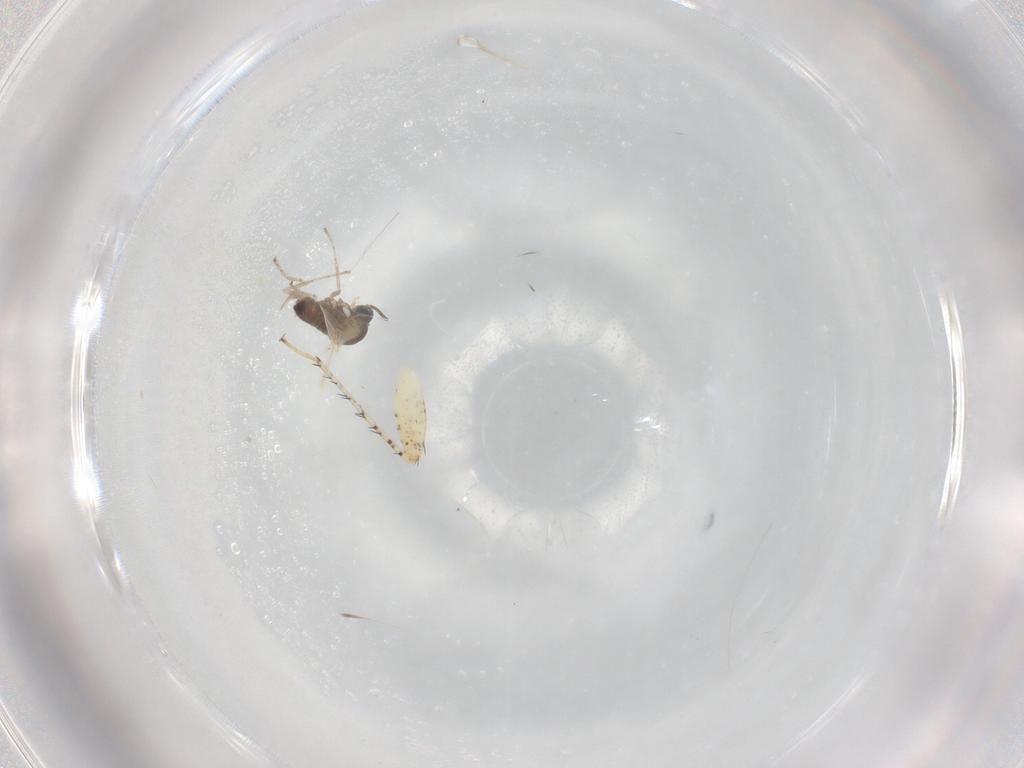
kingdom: Animalia
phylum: Arthropoda
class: Insecta
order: Diptera
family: Cecidomyiidae
